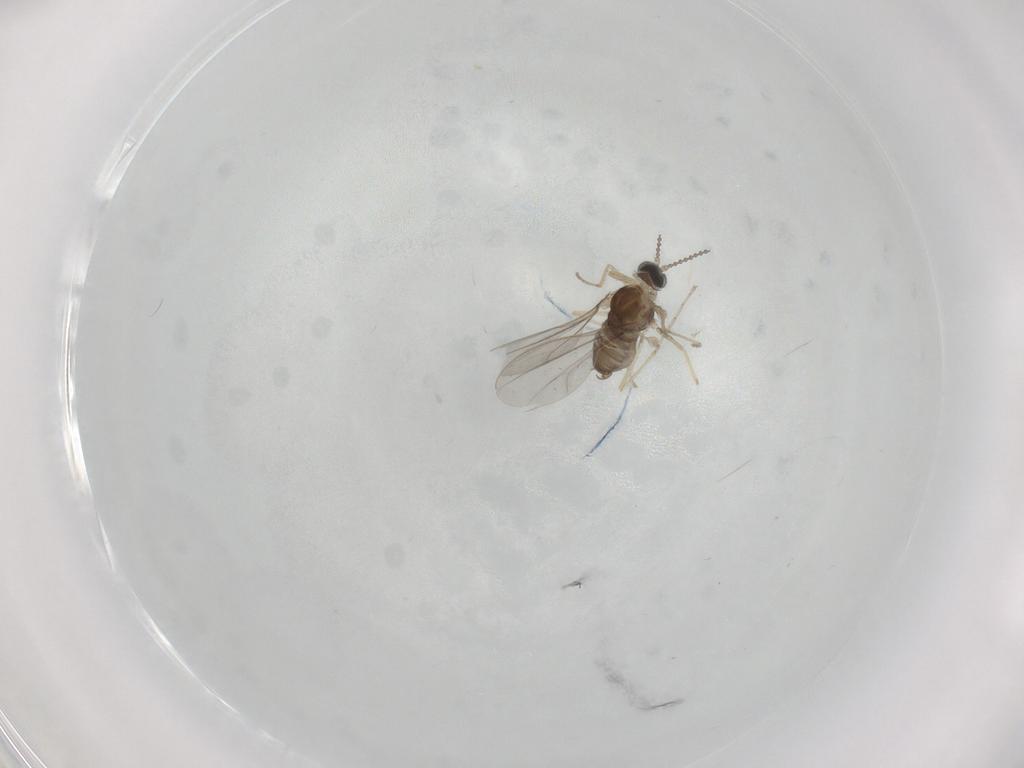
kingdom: Animalia
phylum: Arthropoda
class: Insecta
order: Diptera
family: Cecidomyiidae
